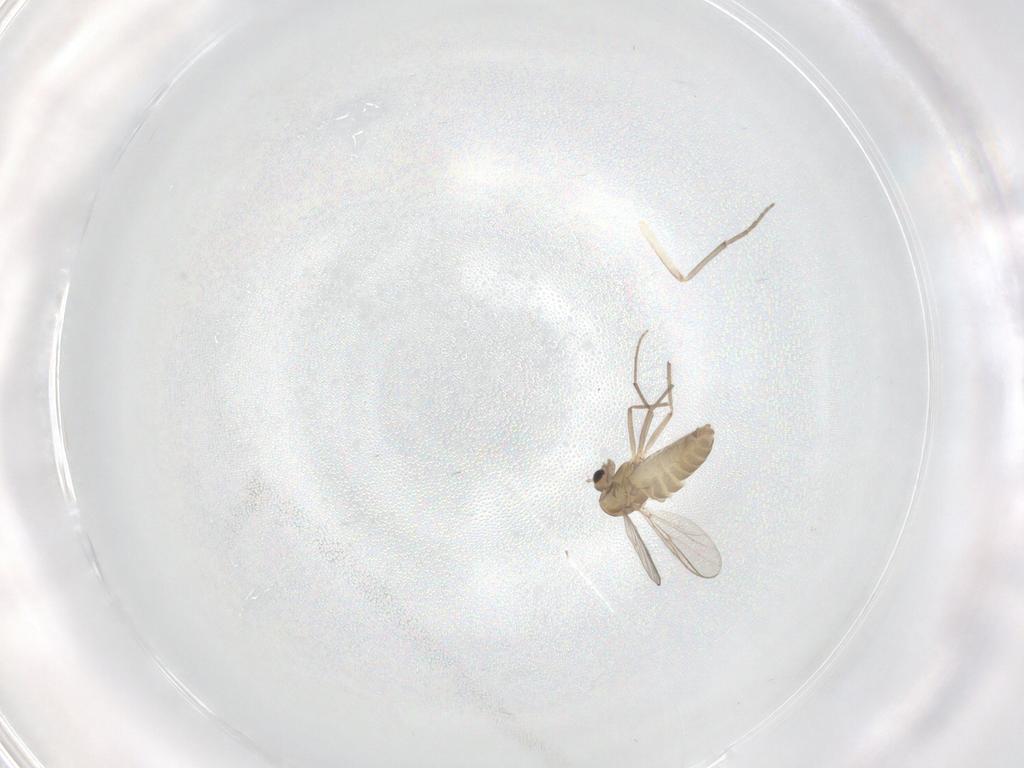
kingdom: Animalia
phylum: Arthropoda
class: Insecta
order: Diptera
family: Chironomidae
